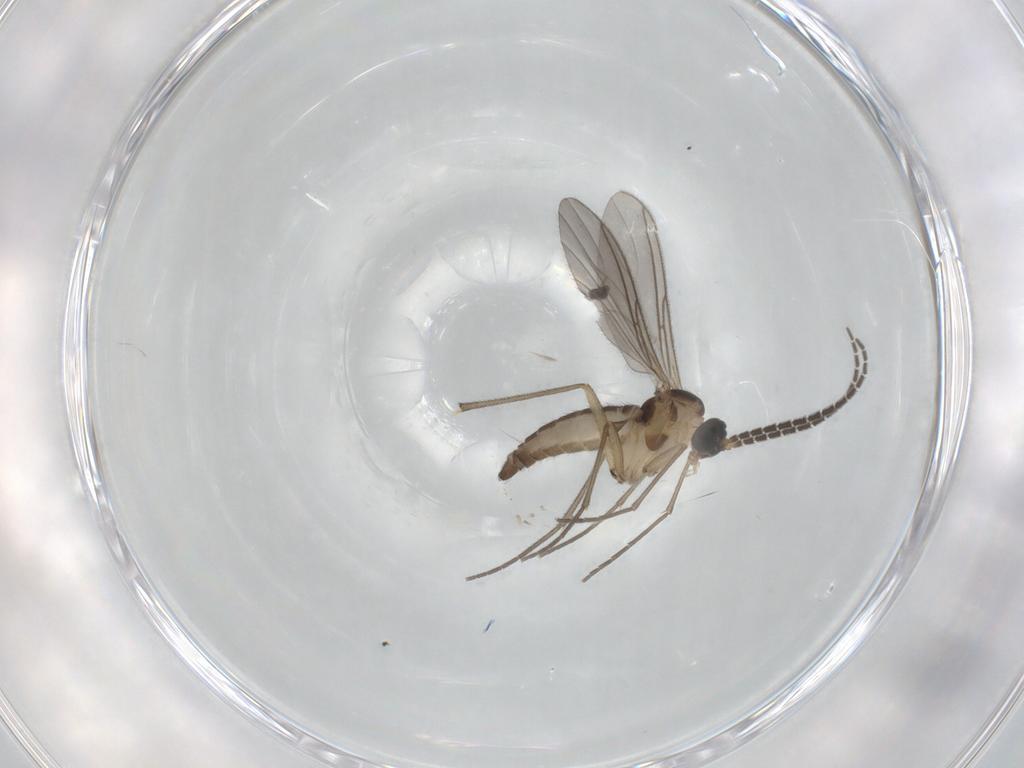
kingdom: Animalia
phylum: Arthropoda
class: Insecta
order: Diptera
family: Sciaridae
